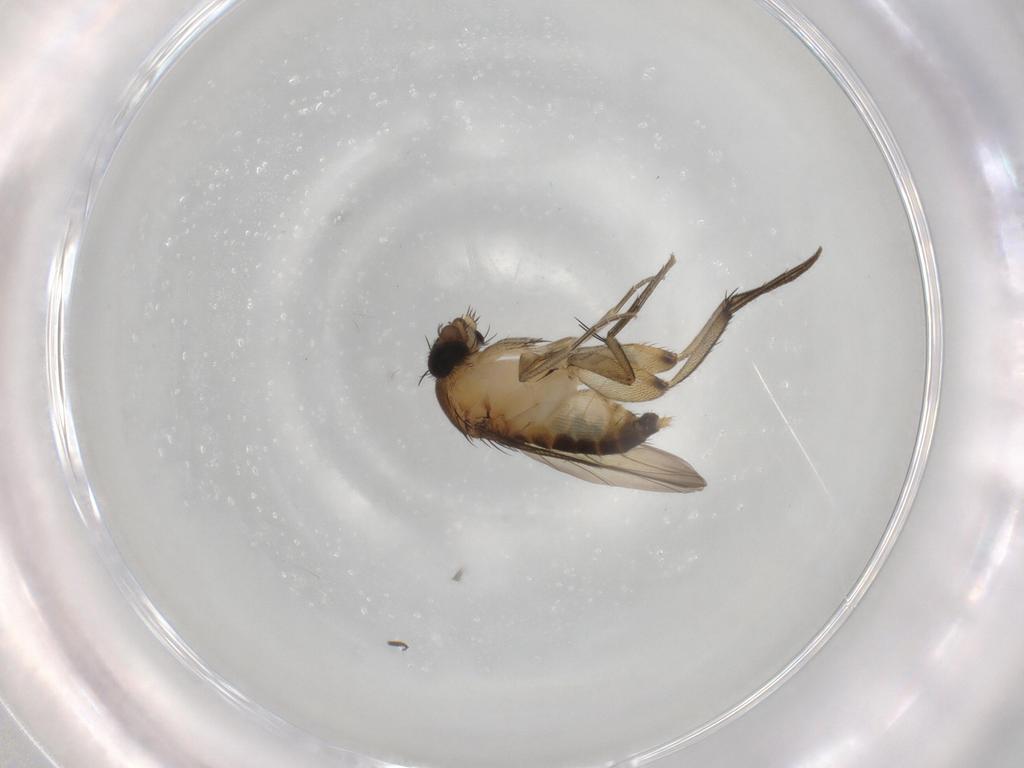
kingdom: Animalia
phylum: Arthropoda
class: Insecta
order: Diptera
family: Phoridae
